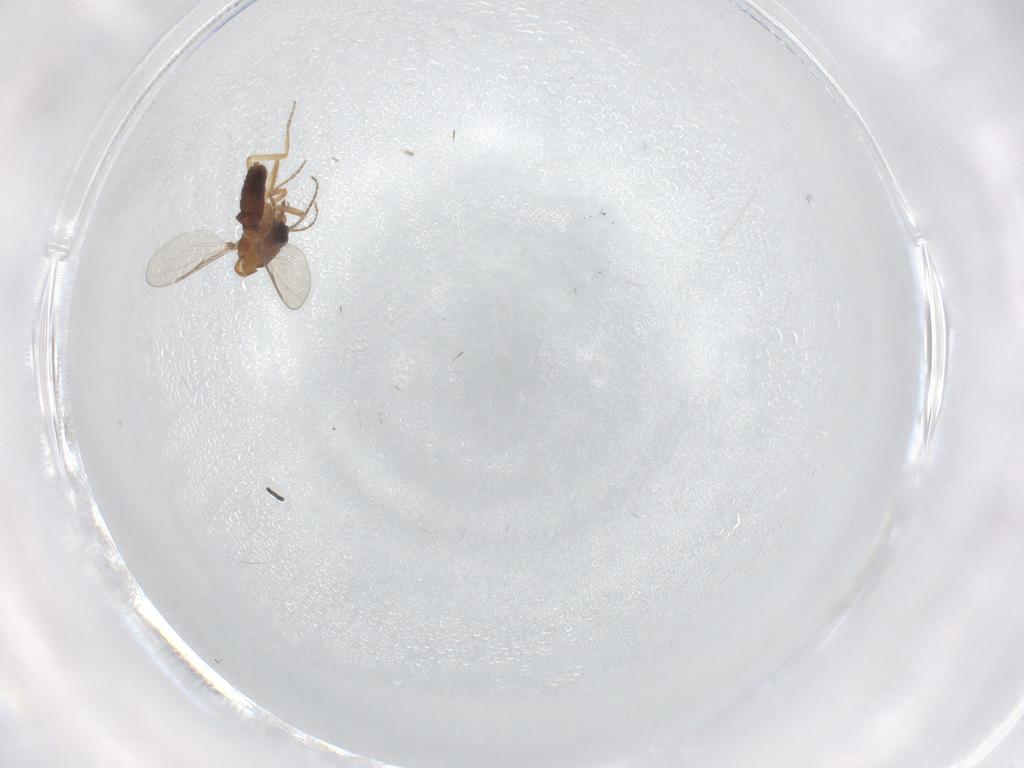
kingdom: Animalia
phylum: Arthropoda
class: Insecta
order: Diptera
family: Ceratopogonidae
